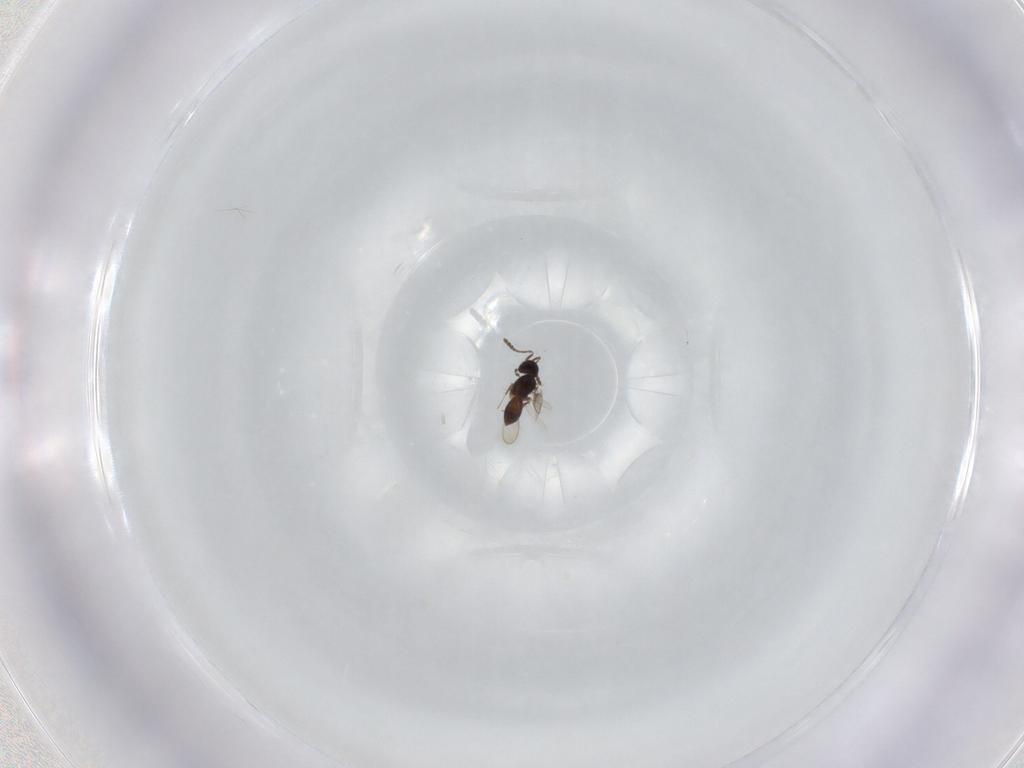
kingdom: Animalia
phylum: Arthropoda
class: Insecta
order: Hymenoptera
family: Scelionidae
